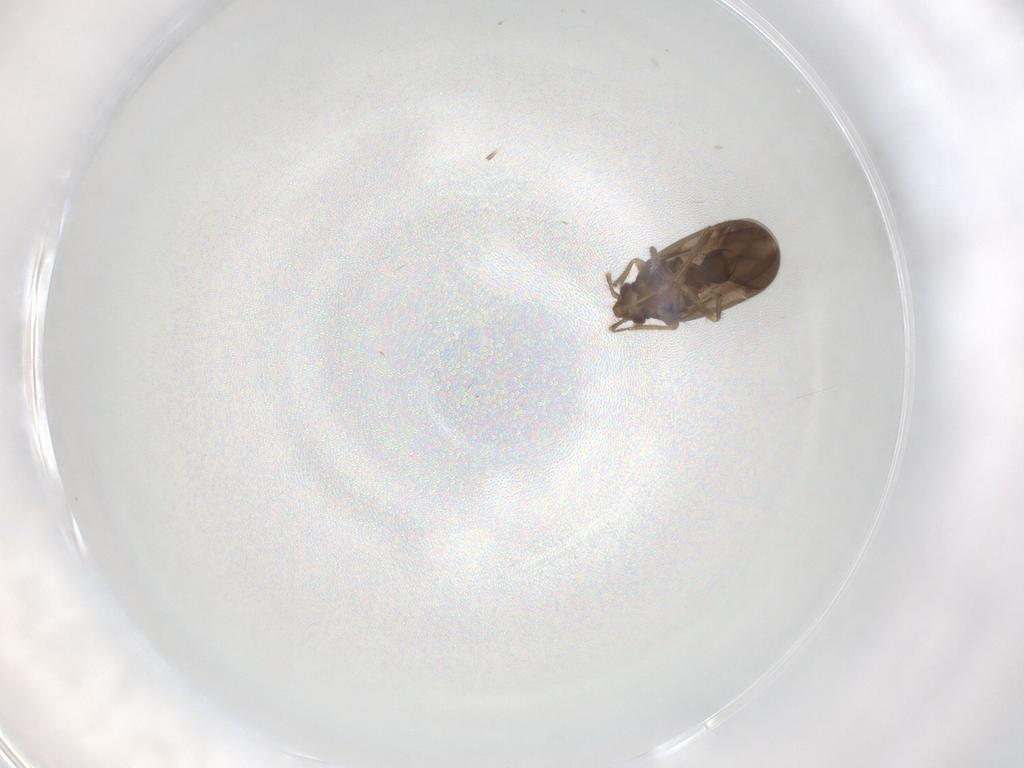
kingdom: Animalia
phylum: Arthropoda
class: Insecta
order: Hemiptera
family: Ceratocombidae
